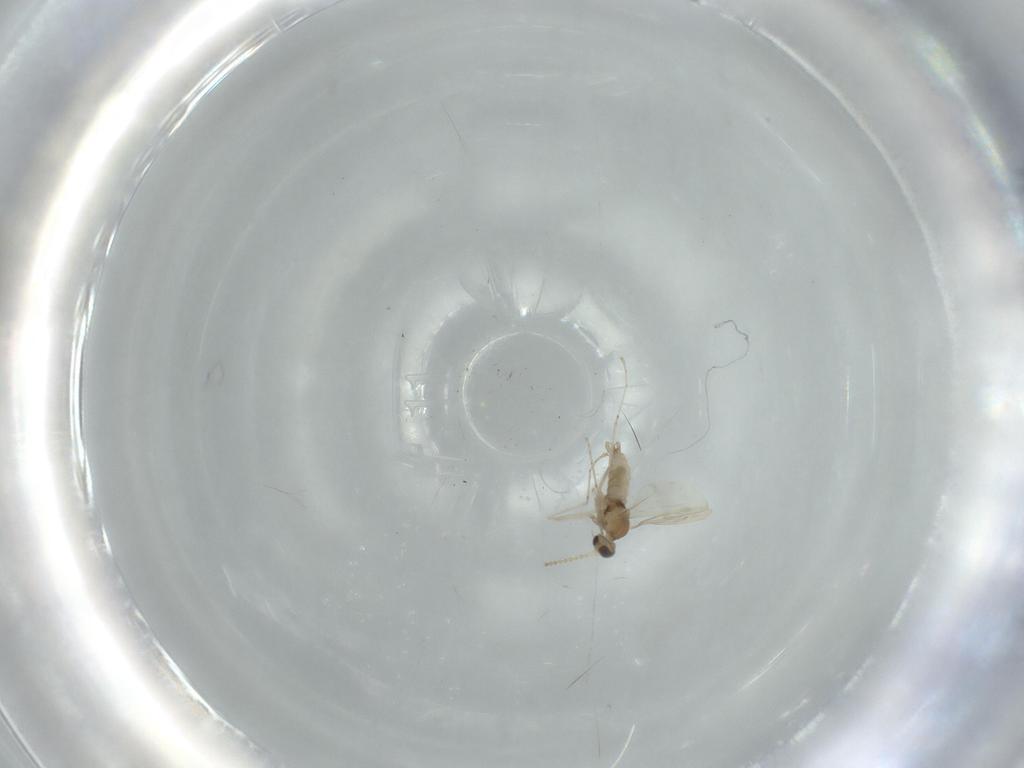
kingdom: Animalia
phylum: Arthropoda
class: Insecta
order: Diptera
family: Cecidomyiidae
